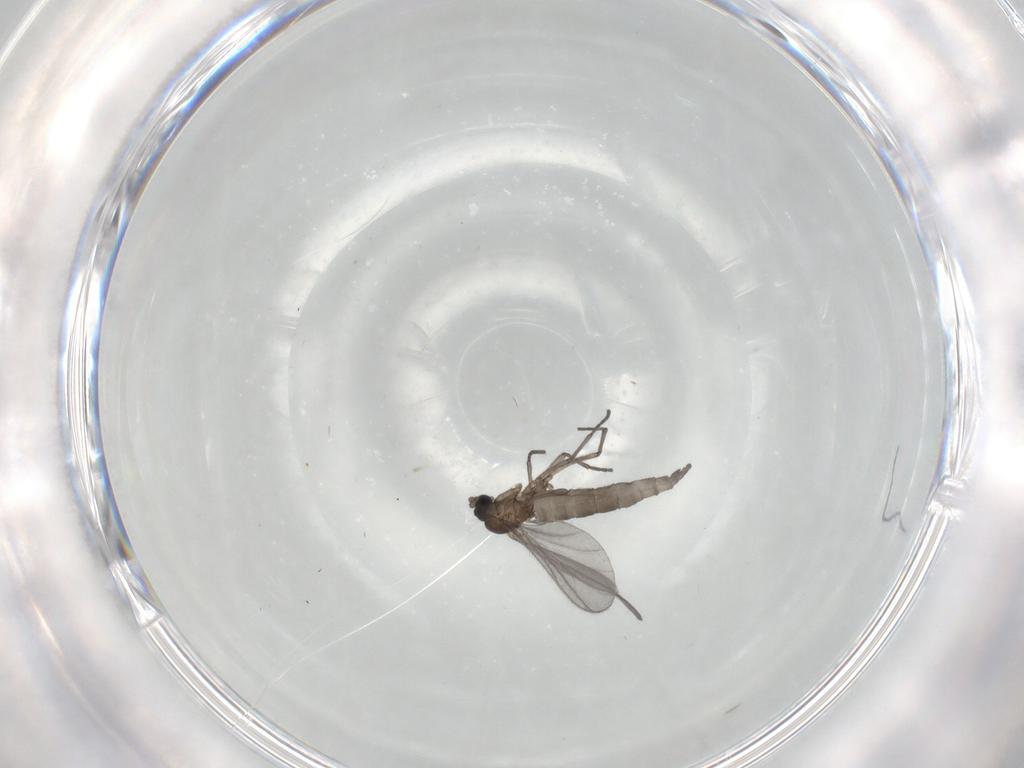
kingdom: Animalia
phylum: Arthropoda
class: Insecta
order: Diptera
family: Sciaridae
